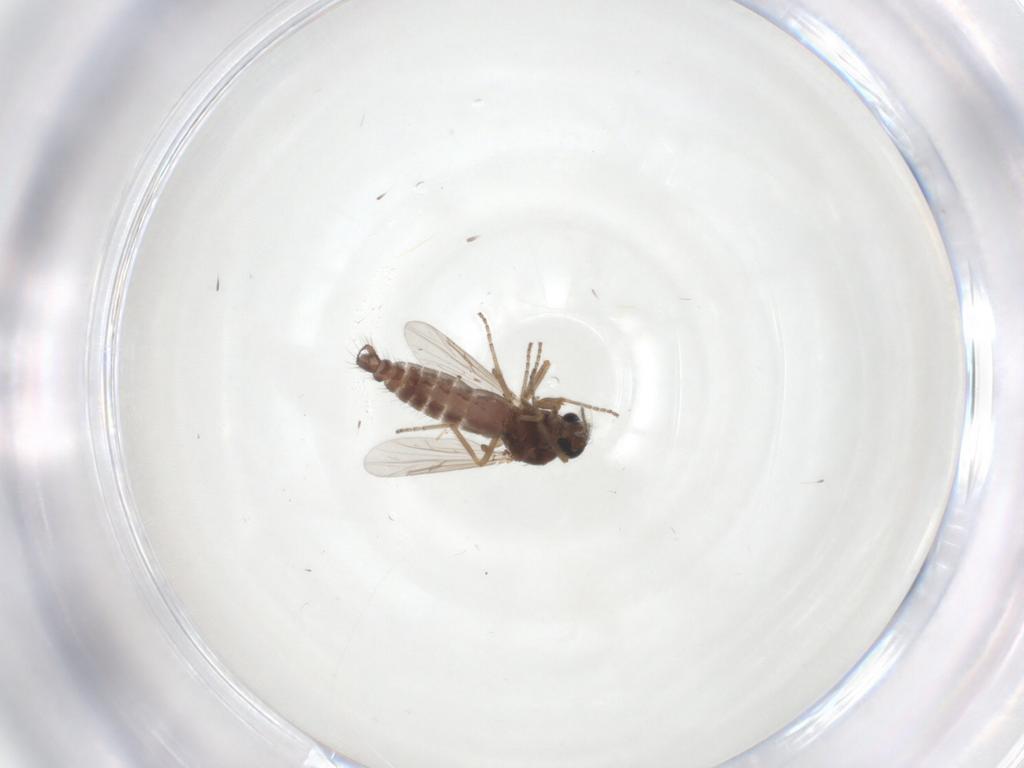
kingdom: Animalia
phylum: Arthropoda
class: Insecta
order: Diptera
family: Ceratopogonidae
